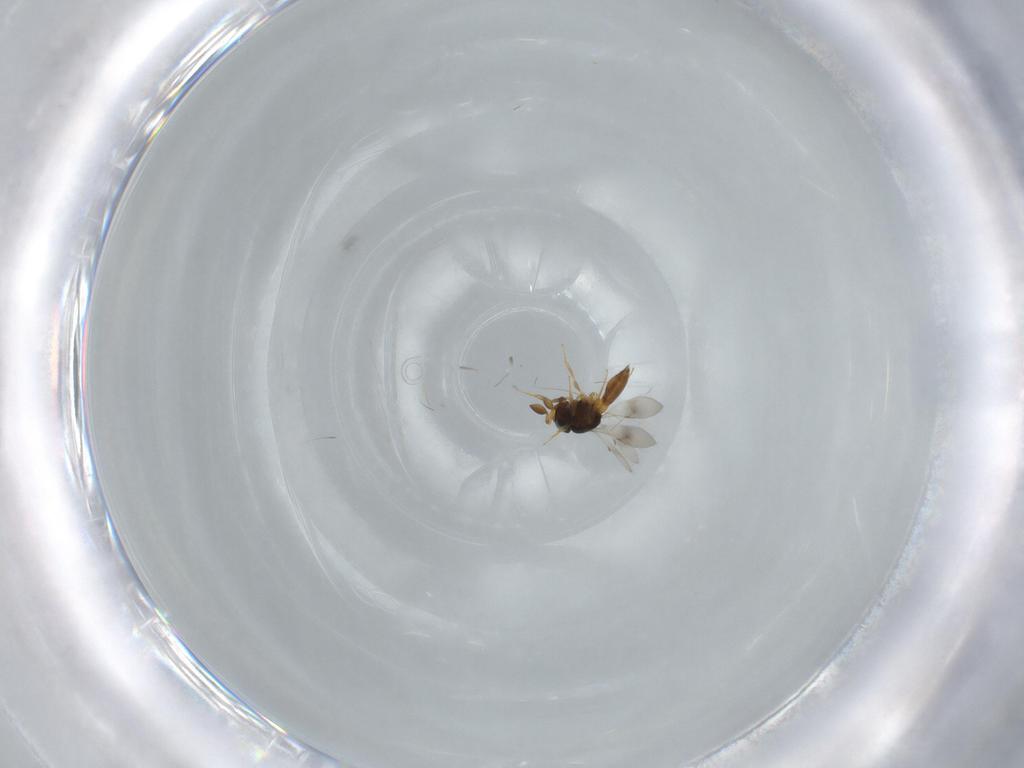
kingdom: Animalia
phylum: Arthropoda
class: Insecta
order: Hymenoptera
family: Scelionidae
